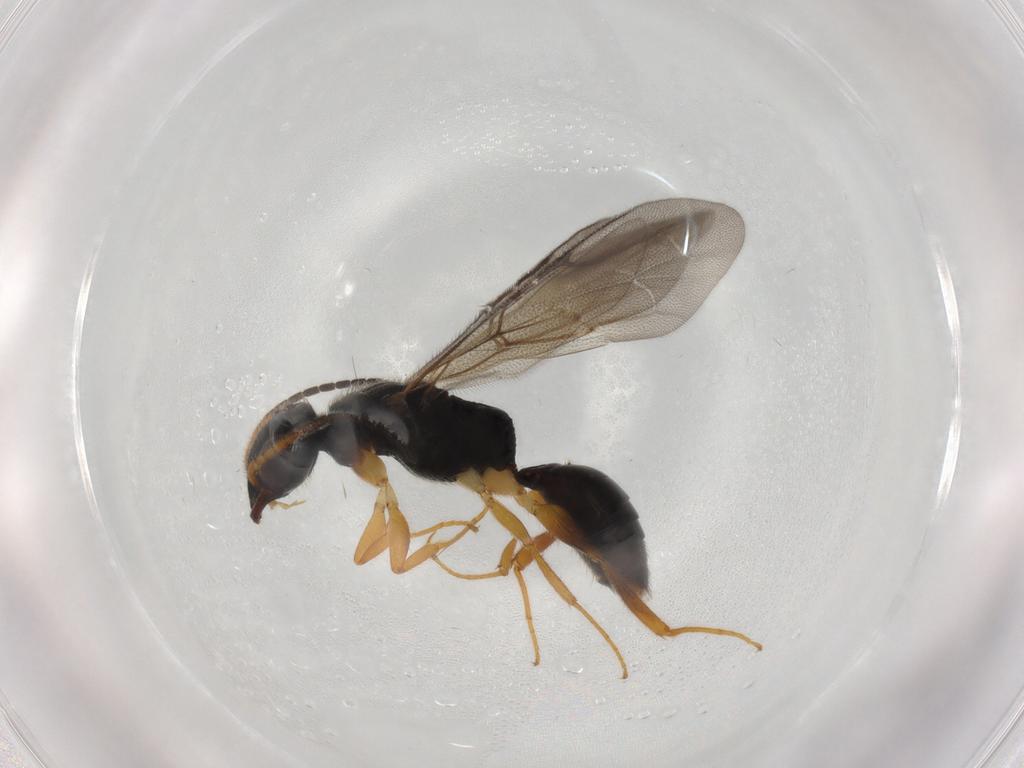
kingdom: Animalia
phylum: Arthropoda
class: Insecta
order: Hymenoptera
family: Bethylidae
